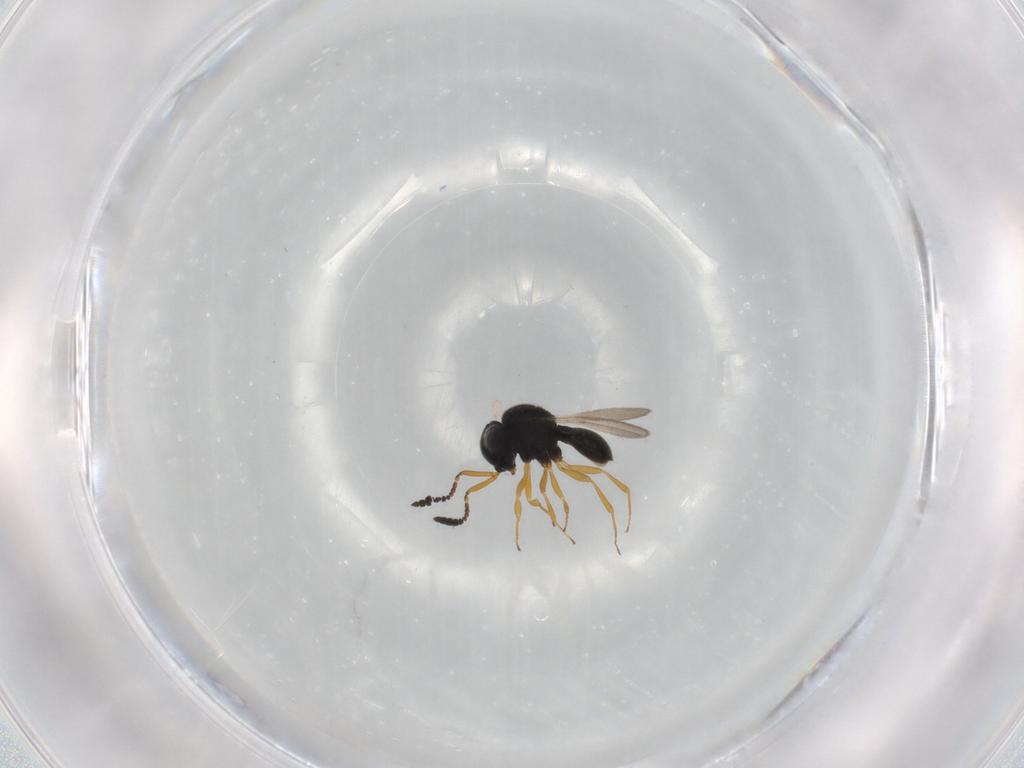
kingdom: Animalia
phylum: Arthropoda
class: Insecta
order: Hymenoptera
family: Scelionidae
